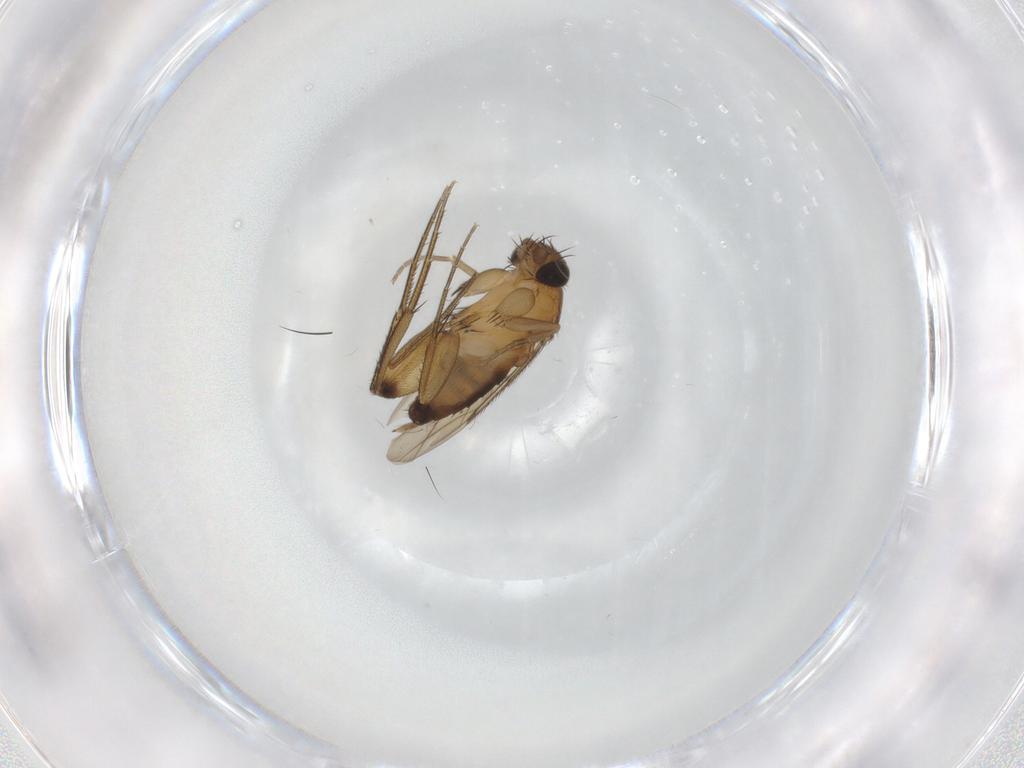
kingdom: Animalia
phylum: Arthropoda
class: Insecta
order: Diptera
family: Phoridae
